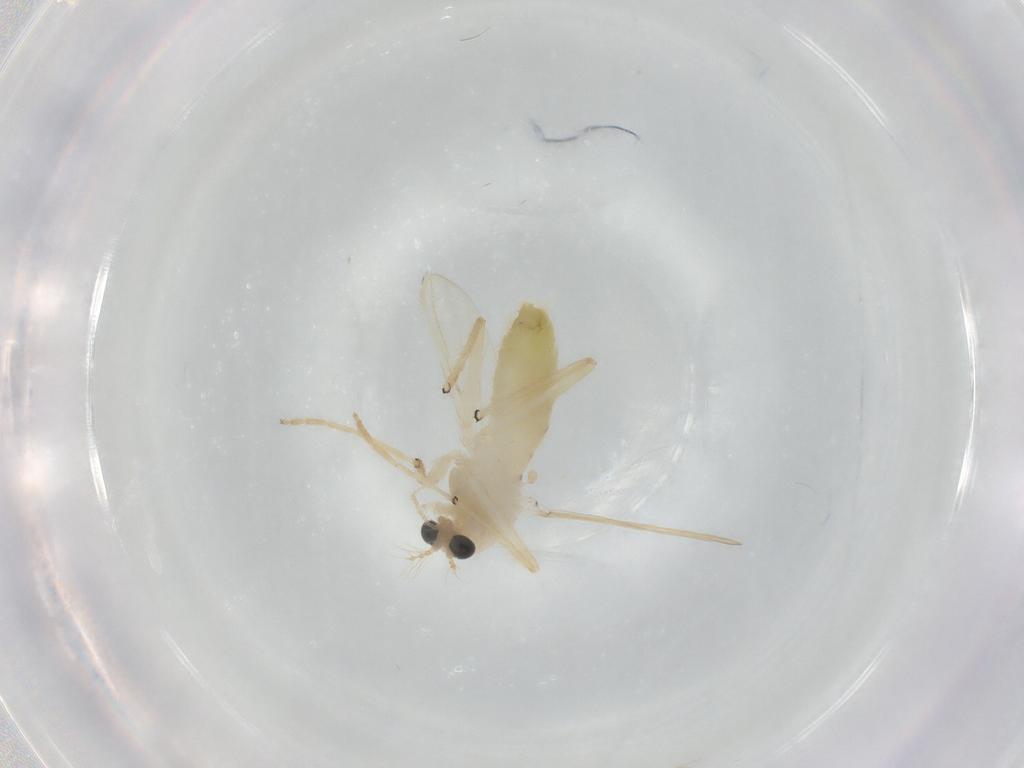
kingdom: Animalia
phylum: Arthropoda
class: Insecta
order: Diptera
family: Chironomidae
